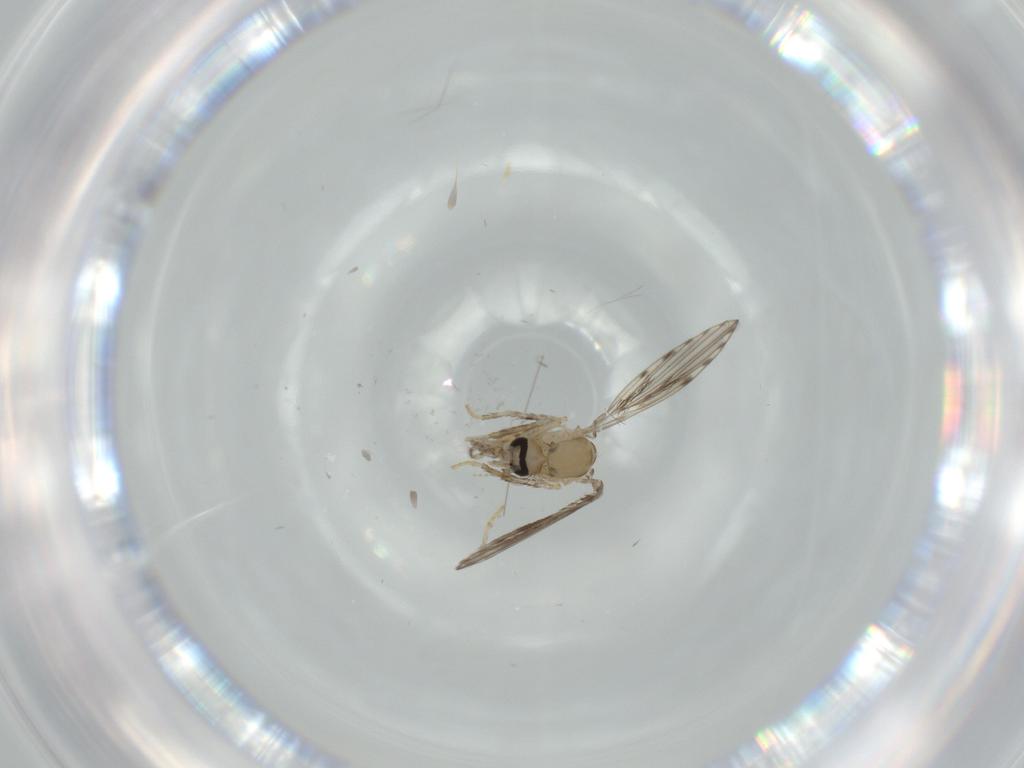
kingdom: Animalia
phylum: Arthropoda
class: Insecta
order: Diptera
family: Psychodidae
